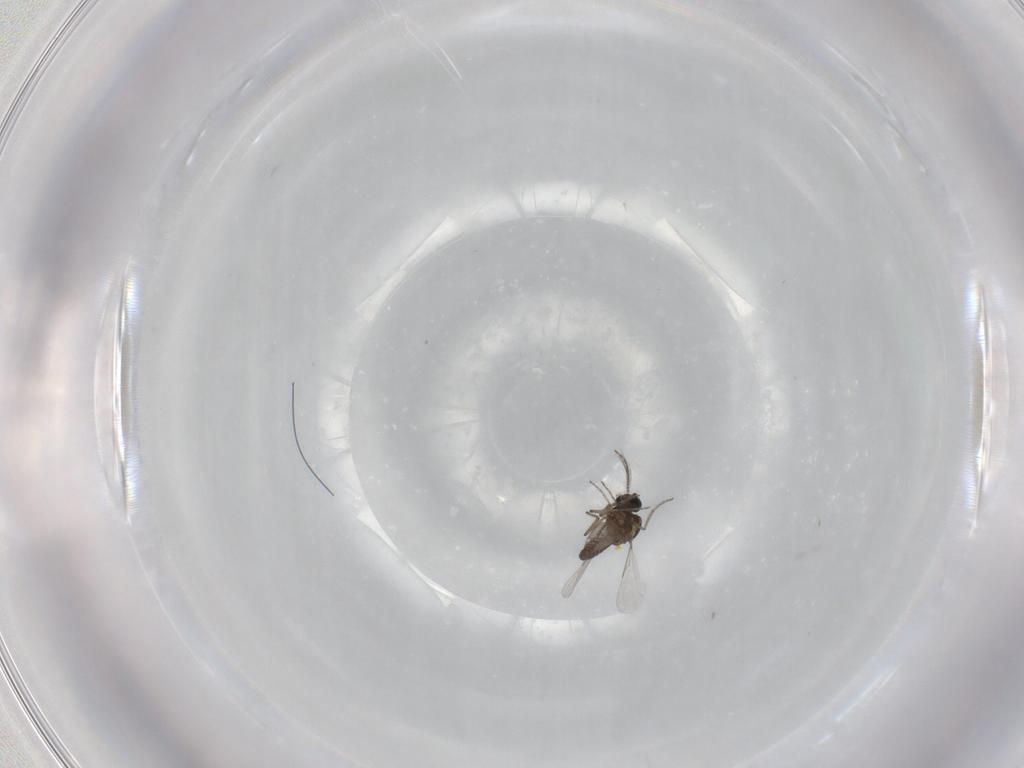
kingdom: Animalia
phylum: Arthropoda
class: Insecta
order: Diptera
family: Ceratopogonidae
